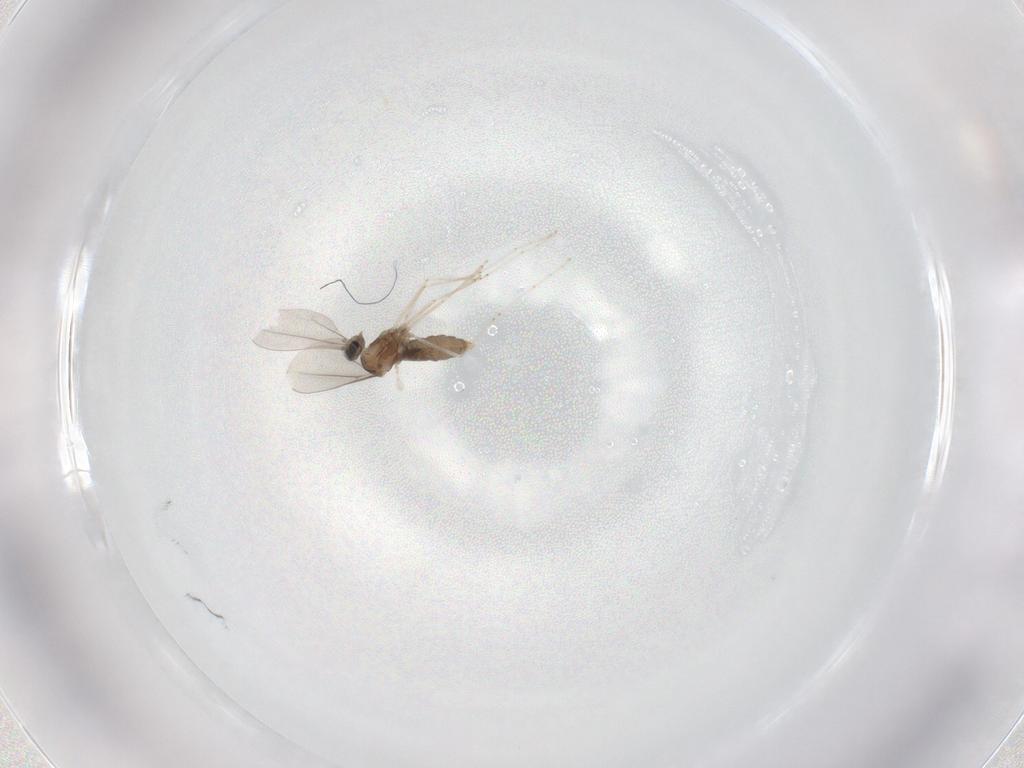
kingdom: Animalia
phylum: Arthropoda
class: Insecta
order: Diptera
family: Cecidomyiidae
